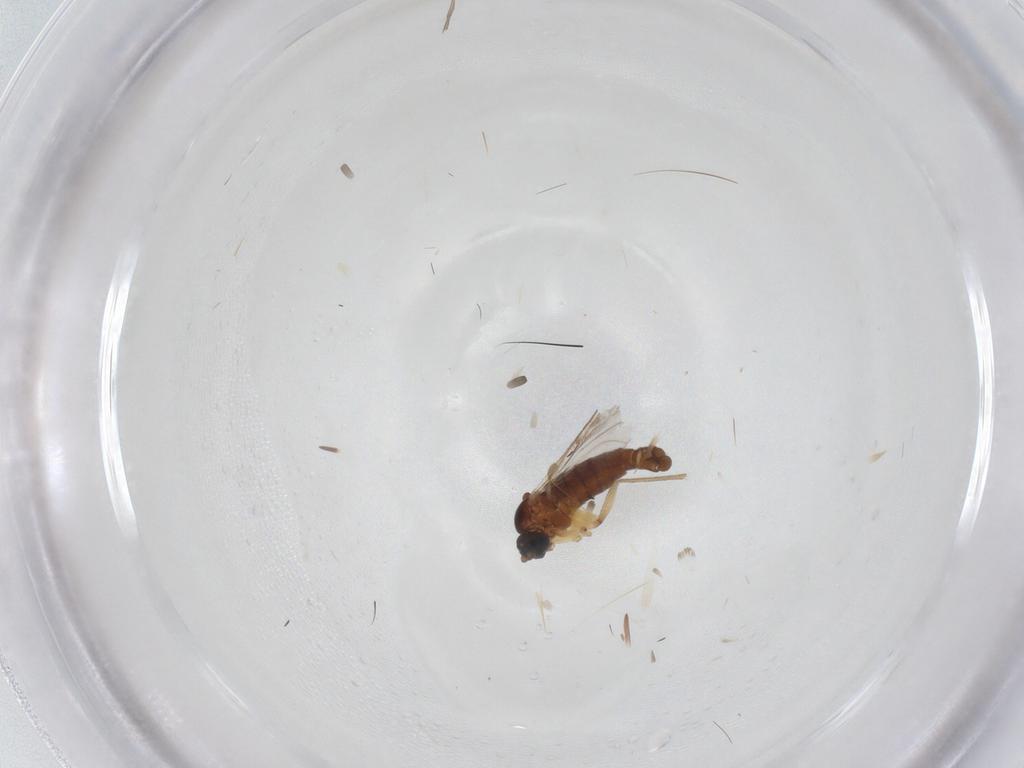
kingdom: Animalia
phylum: Arthropoda
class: Insecta
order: Diptera
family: Sciaridae
